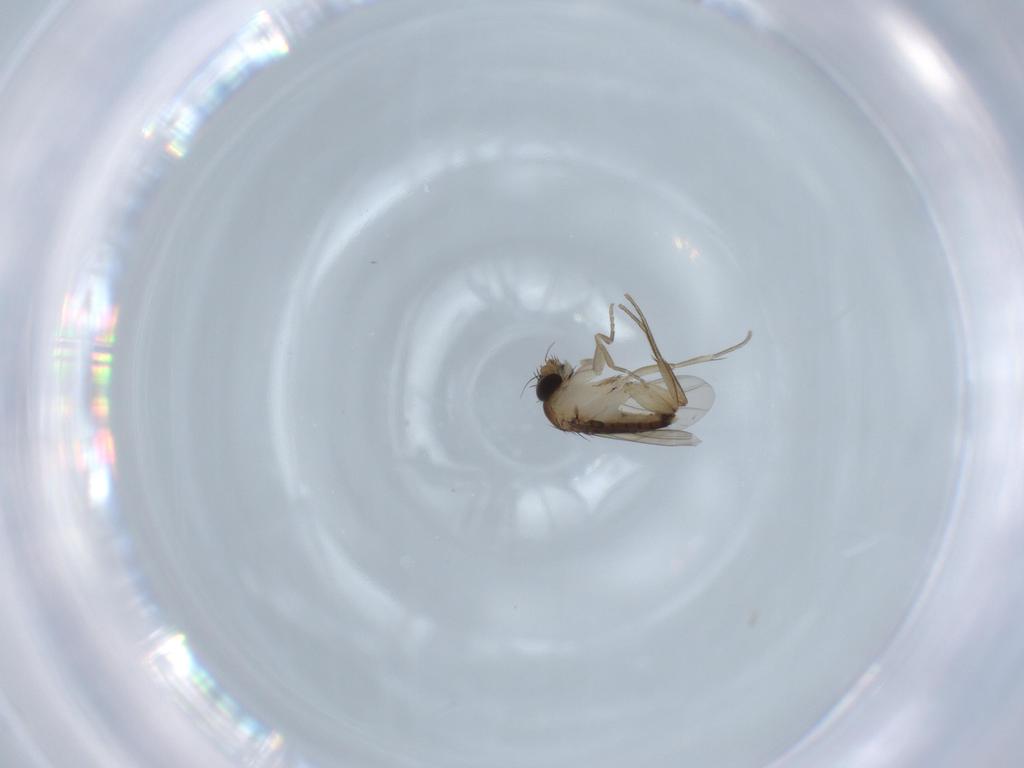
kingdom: Animalia
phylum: Arthropoda
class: Insecta
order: Diptera
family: Phoridae
